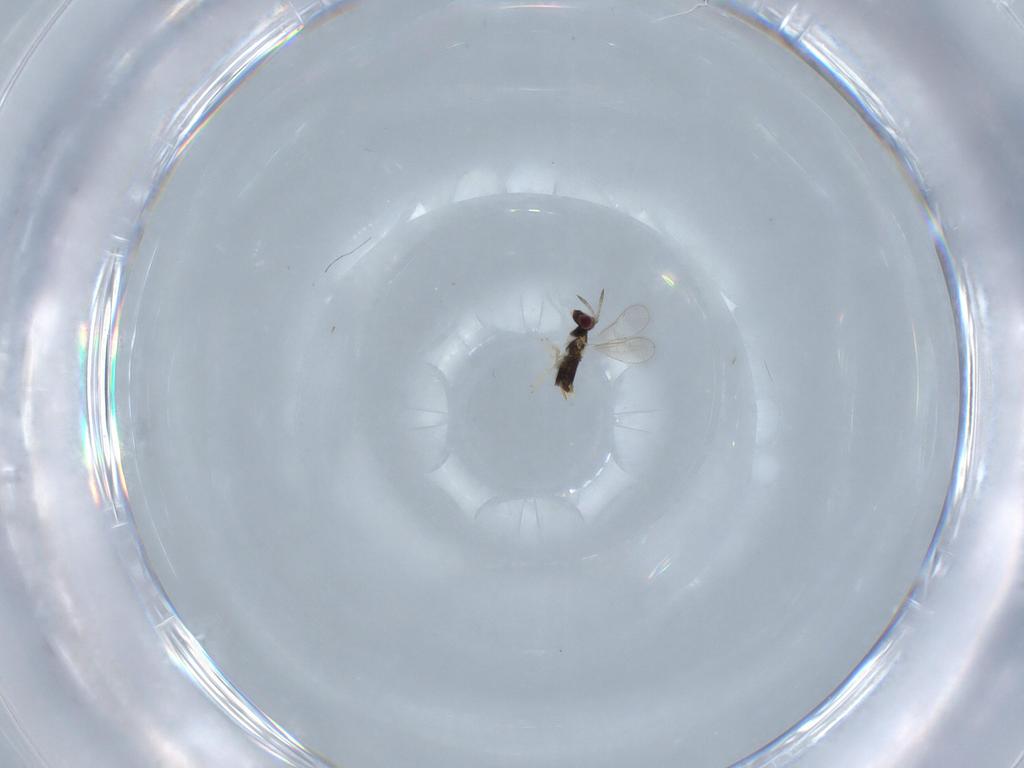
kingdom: Animalia
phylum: Arthropoda
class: Insecta
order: Hymenoptera
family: Aphelinidae
